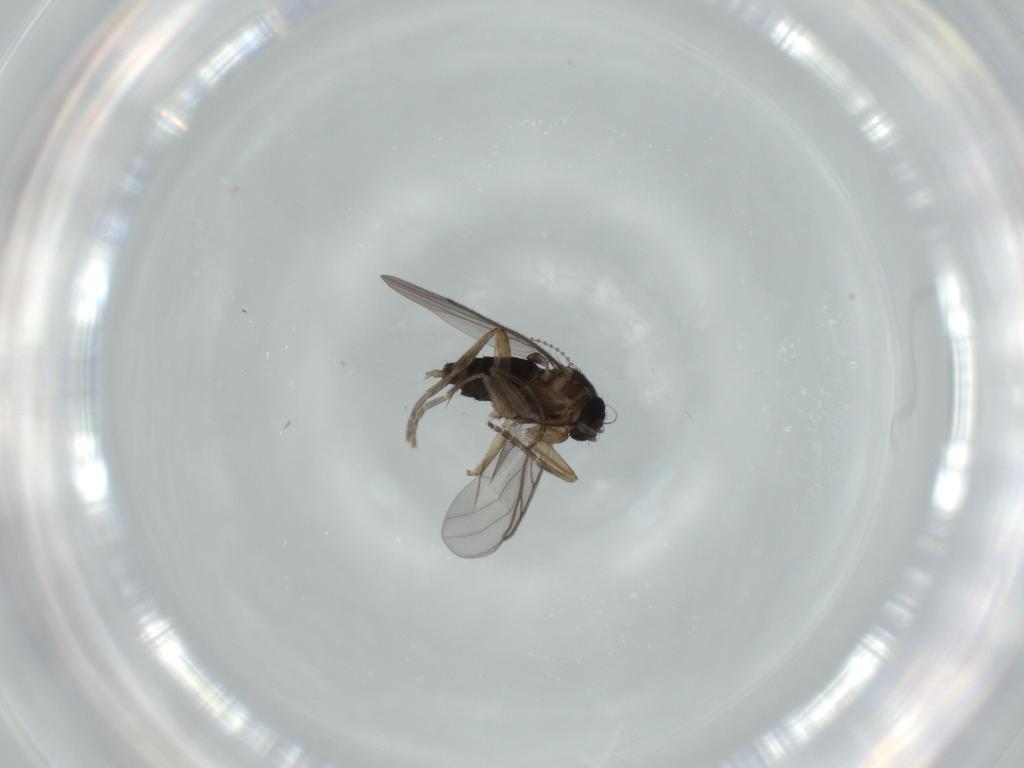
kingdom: Animalia
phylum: Arthropoda
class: Insecta
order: Diptera
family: Cecidomyiidae
